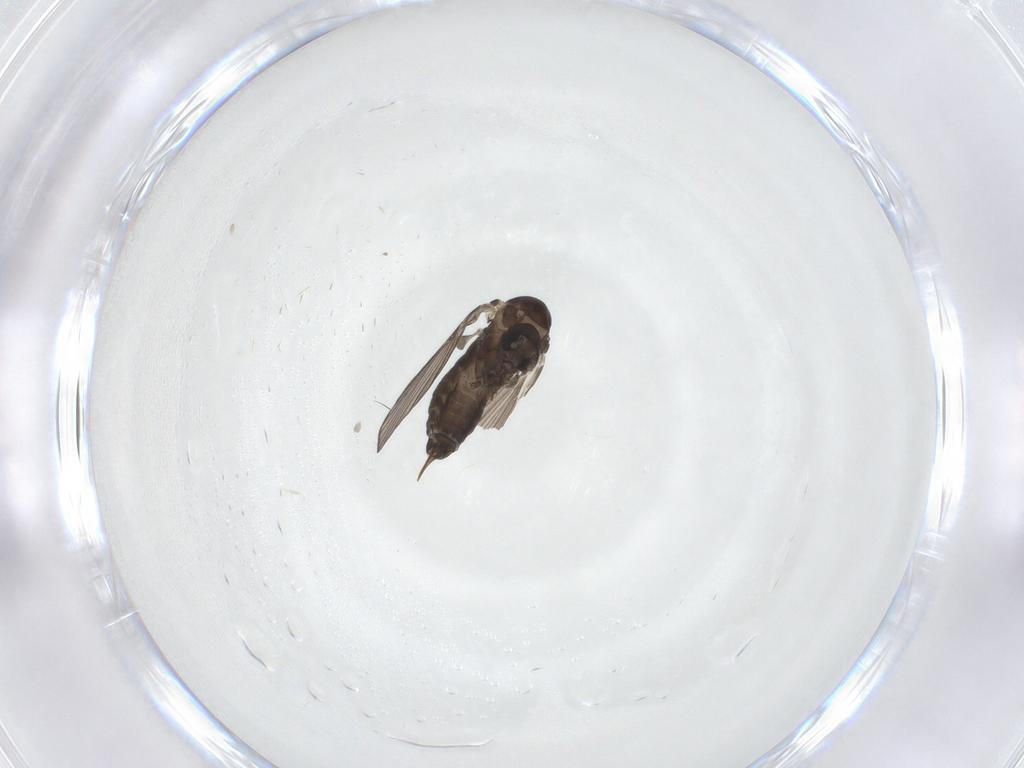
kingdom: Animalia
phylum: Arthropoda
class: Insecta
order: Diptera
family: Psychodidae
